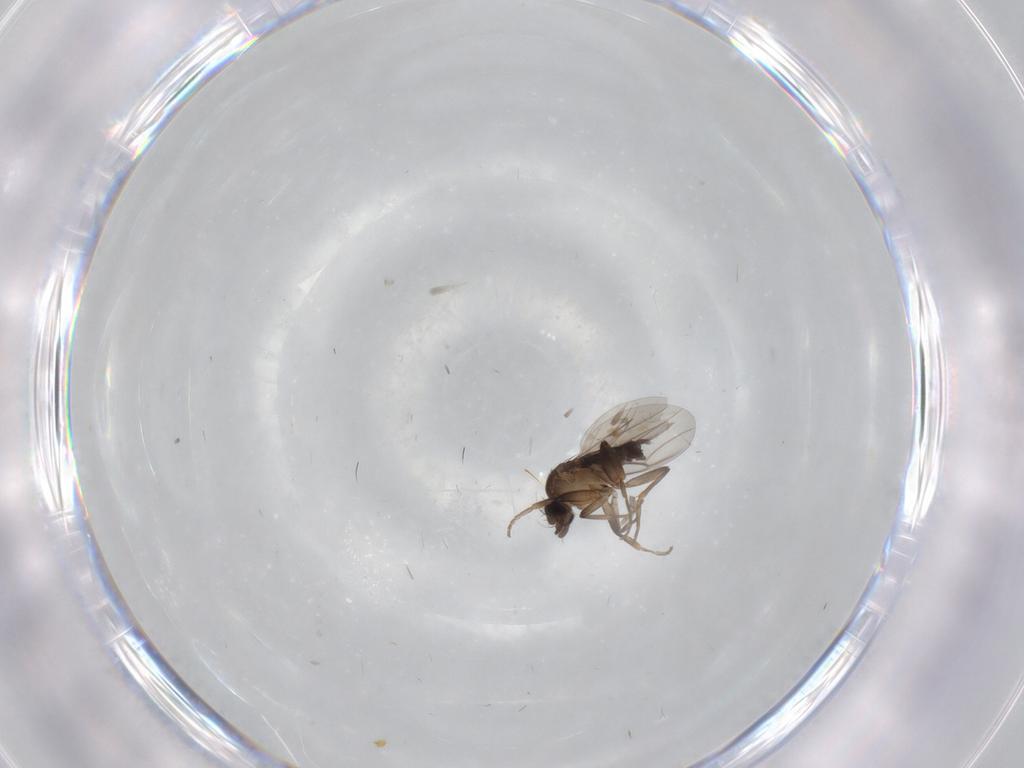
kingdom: Animalia
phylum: Arthropoda
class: Insecta
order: Diptera
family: Phoridae
